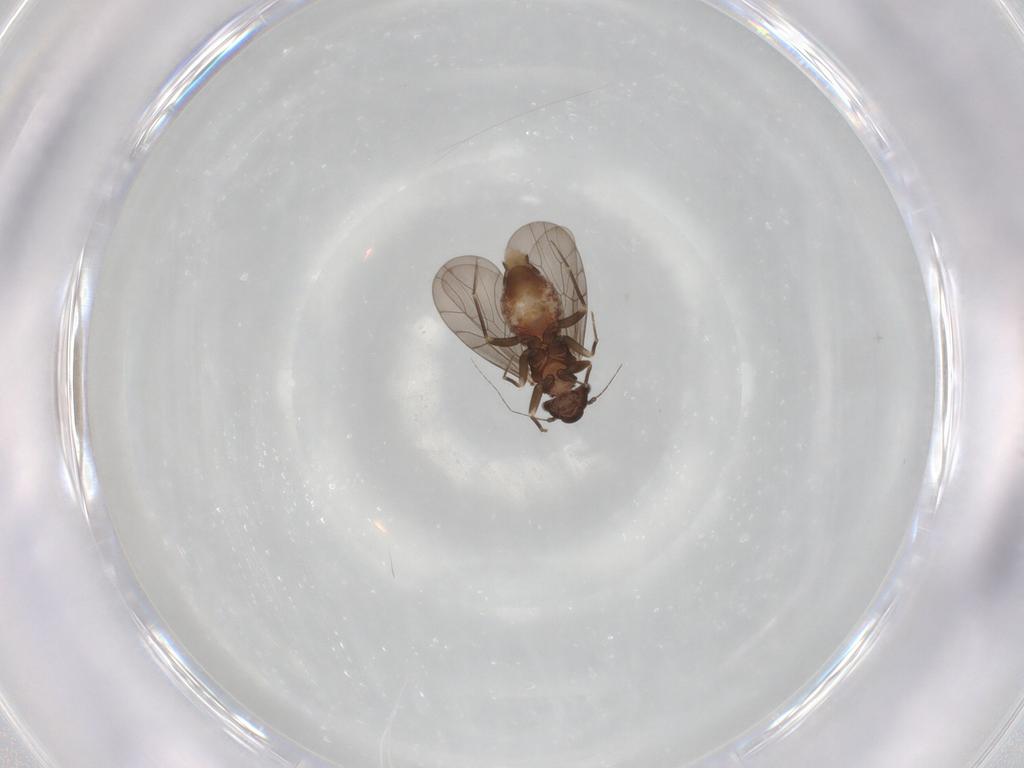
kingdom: Animalia
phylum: Arthropoda
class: Insecta
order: Psocodea
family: Lepidopsocidae
